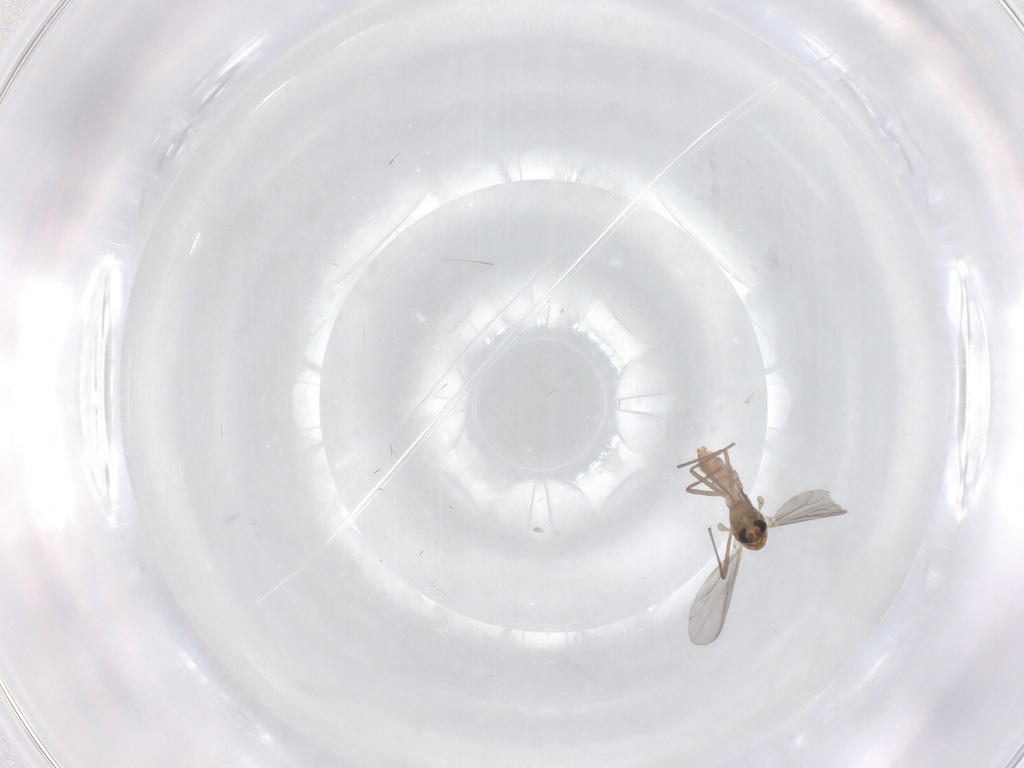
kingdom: Animalia
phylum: Arthropoda
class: Insecta
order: Diptera
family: Chironomidae
